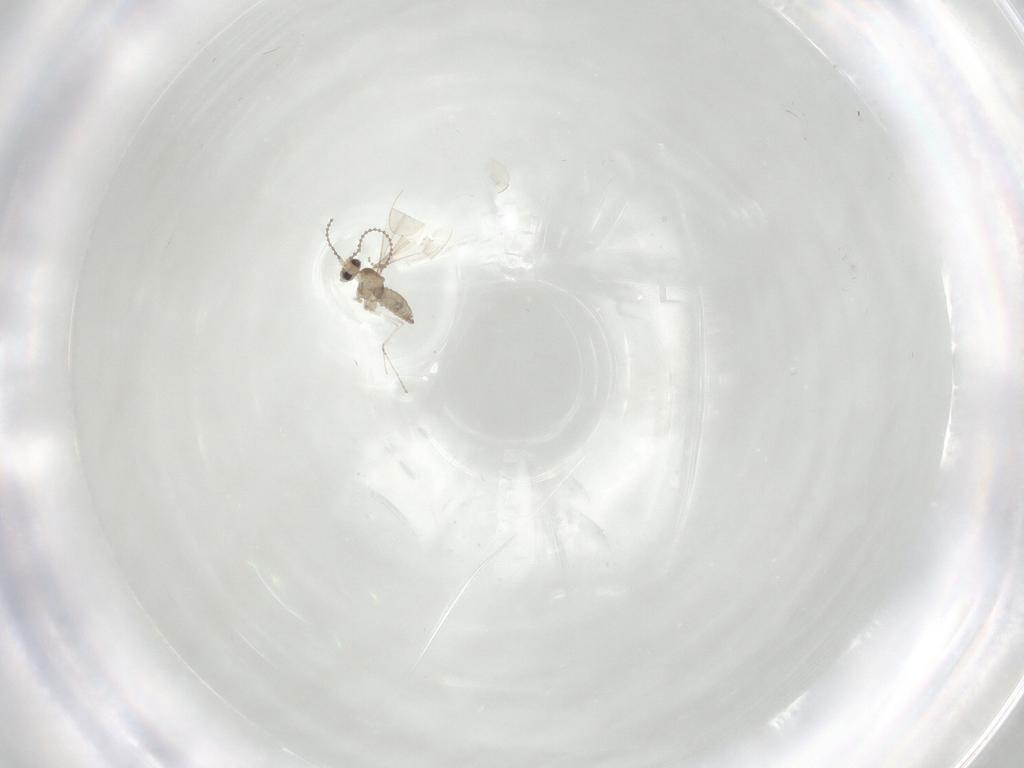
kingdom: Animalia
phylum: Arthropoda
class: Insecta
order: Diptera
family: Cecidomyiidae
